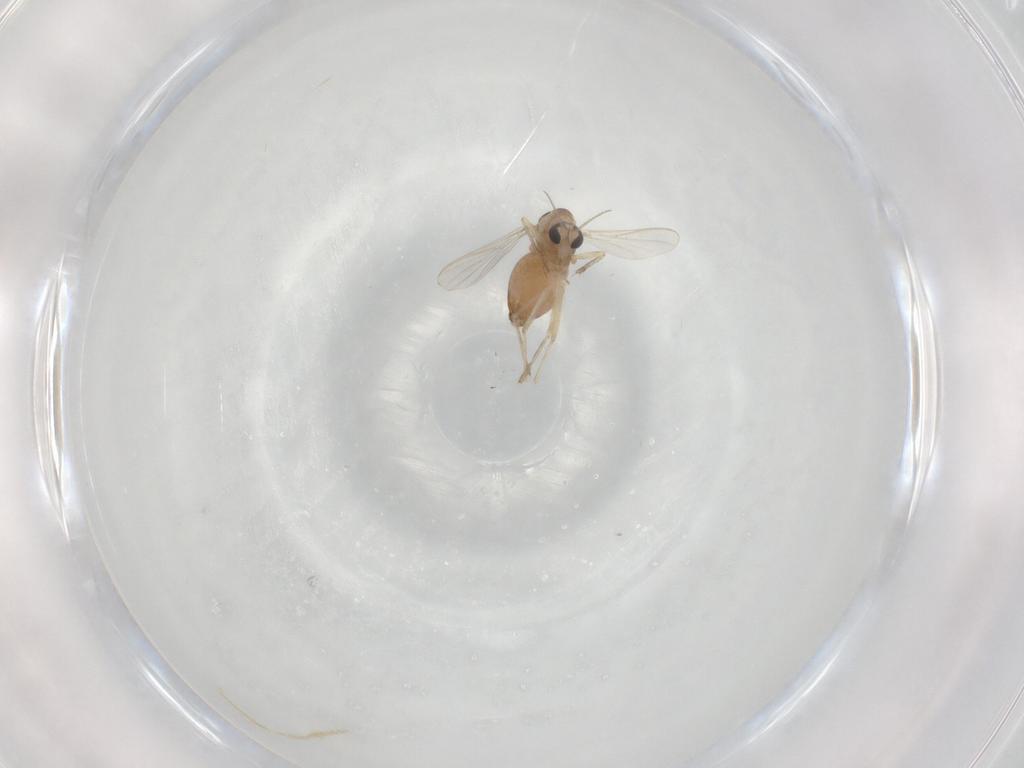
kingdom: Animalia
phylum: Arthropoda
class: Insecta
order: Diptera
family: Chironomidae
